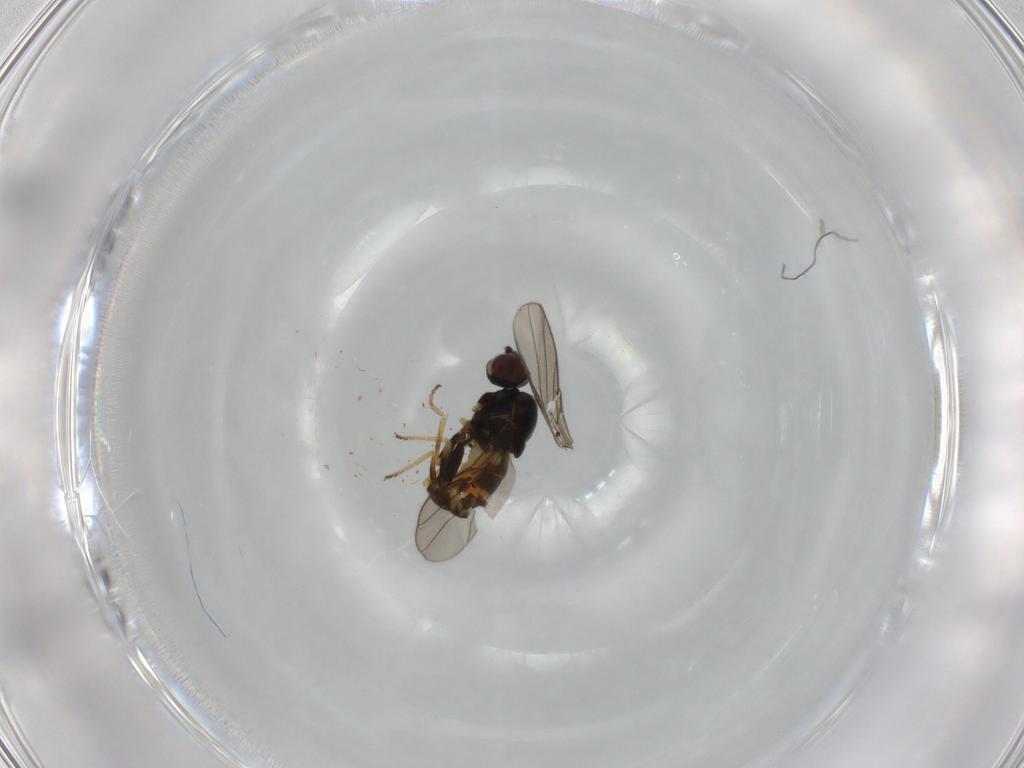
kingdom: Animalia
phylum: Arthropoda
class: Insecta
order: Diptera
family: Chloropidae
